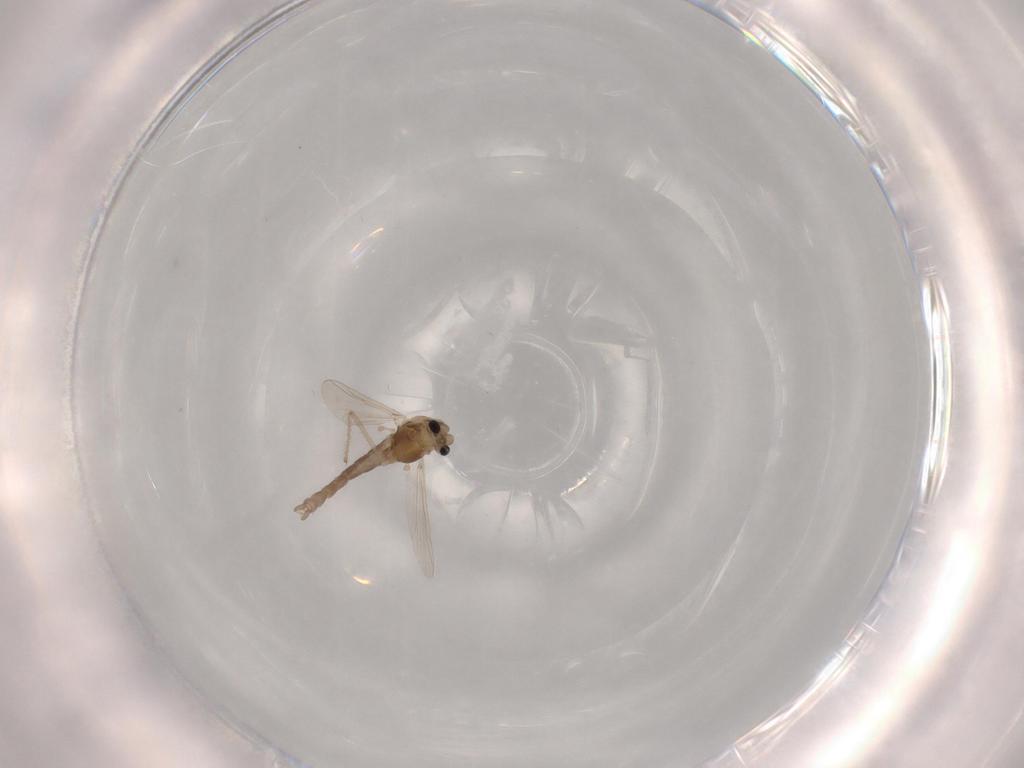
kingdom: Animalia
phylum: Arthropoda
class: Insecta
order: Diptera
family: Chironomidae
